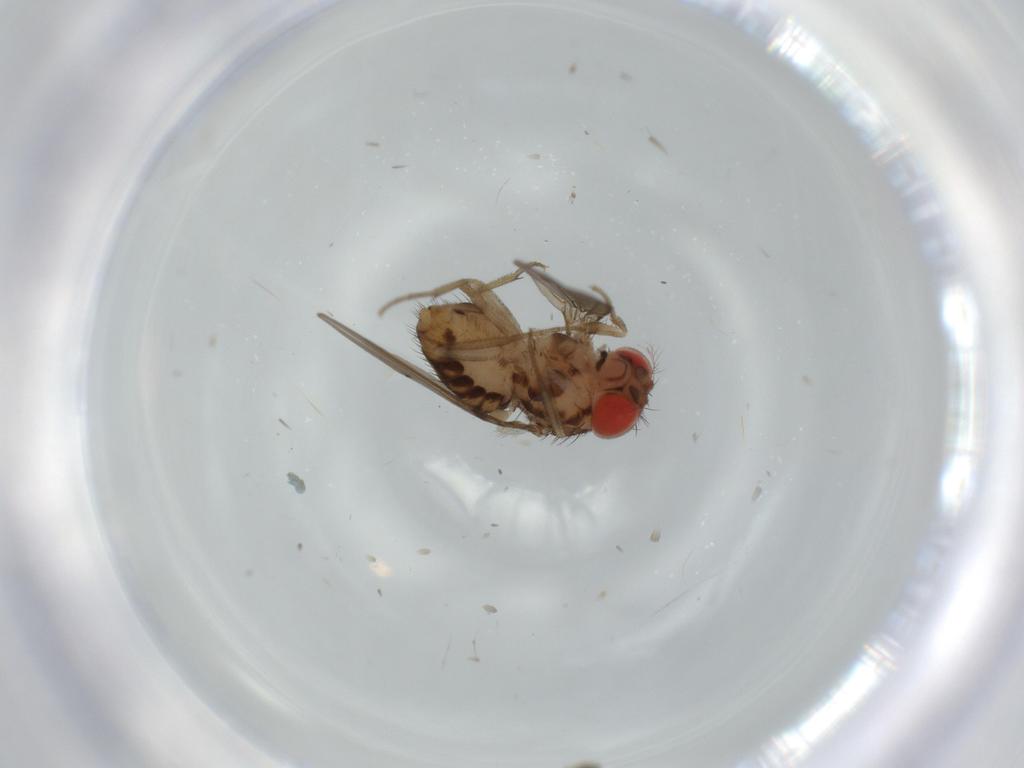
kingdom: Animalia
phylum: Arthropoda
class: Insecta
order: Diptera
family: Drosophilidae
